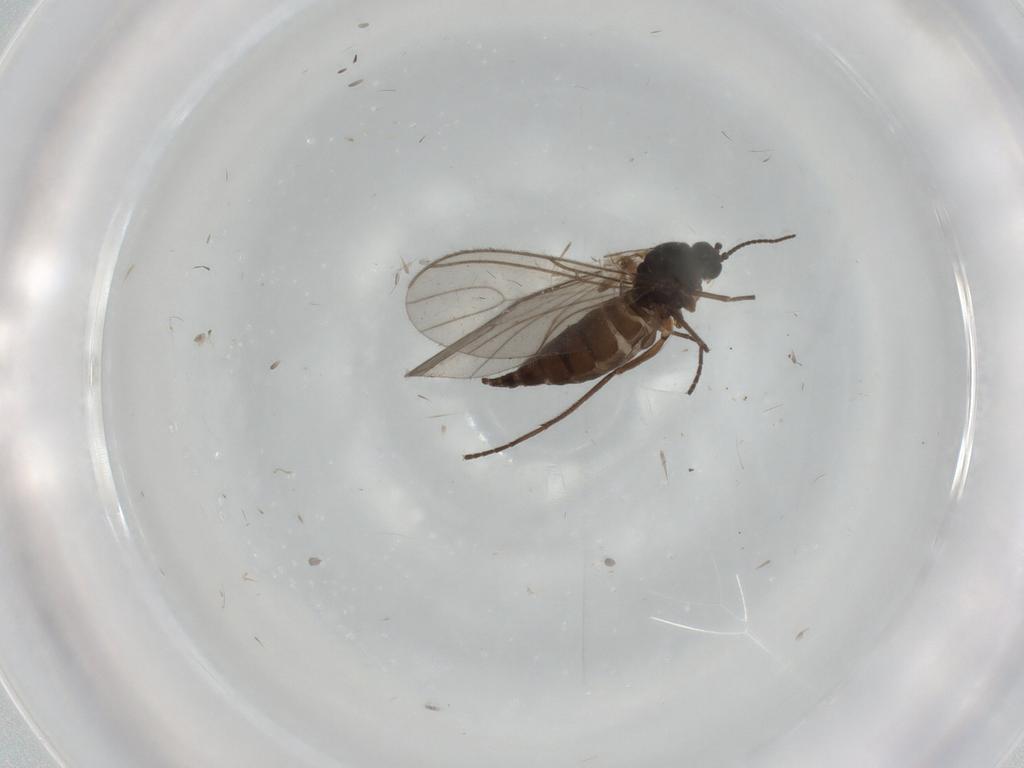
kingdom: Animalia
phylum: Arthropoda
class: Insecta
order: Diptera
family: Sciaridae
